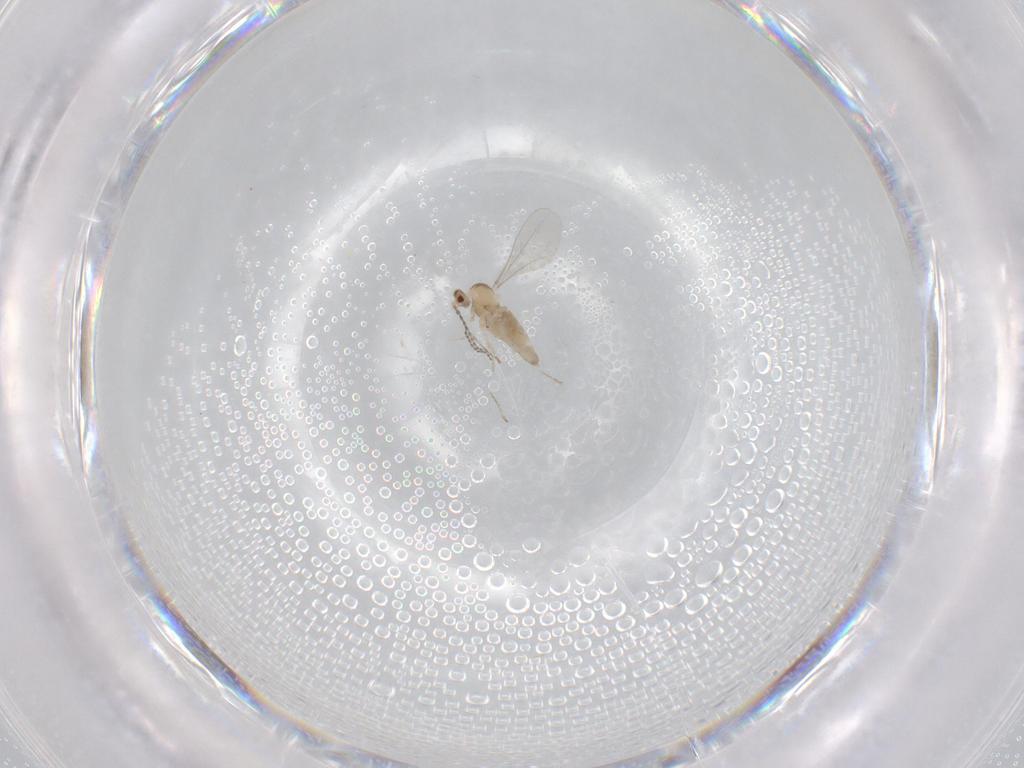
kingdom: Animalia
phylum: Arthropoda
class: Insecta
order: Diptera
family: Cecidomyiidae
